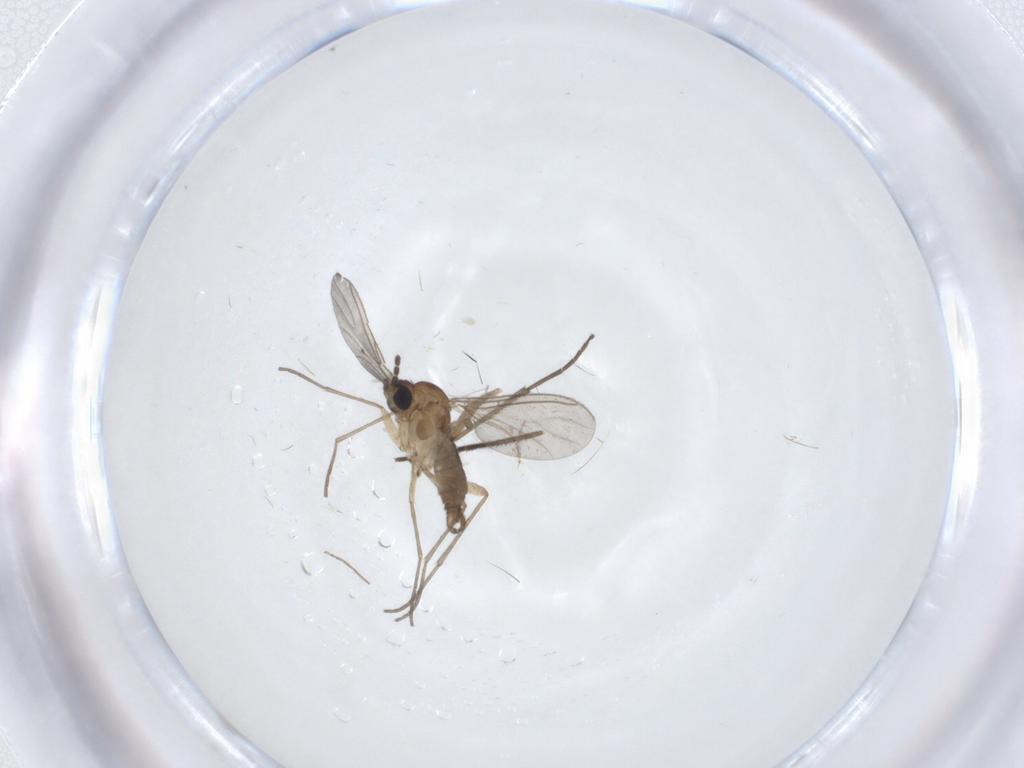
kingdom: Animalia
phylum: Arthropoda
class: Insecta
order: Diptera
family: Sciaridae
